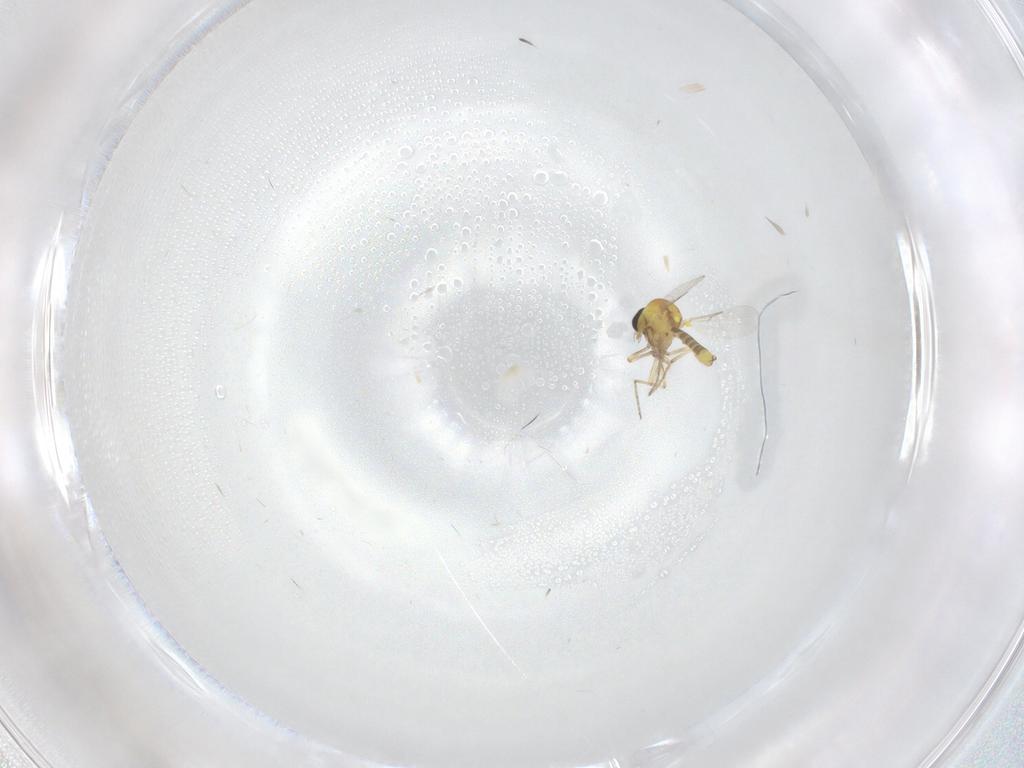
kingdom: Animalia
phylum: Arthropoda
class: Insecta
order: Diptera
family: Ceratopogonidae
